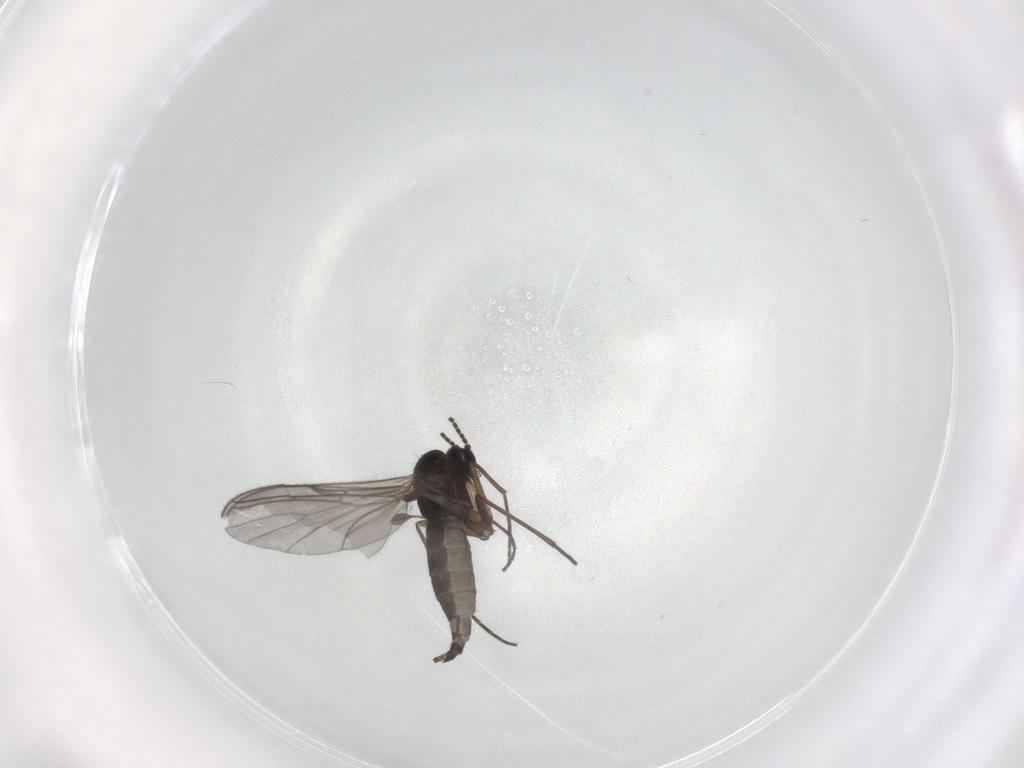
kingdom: Animalia
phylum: Arthropoda
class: Insecta
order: Diptera
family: Sciaridae
